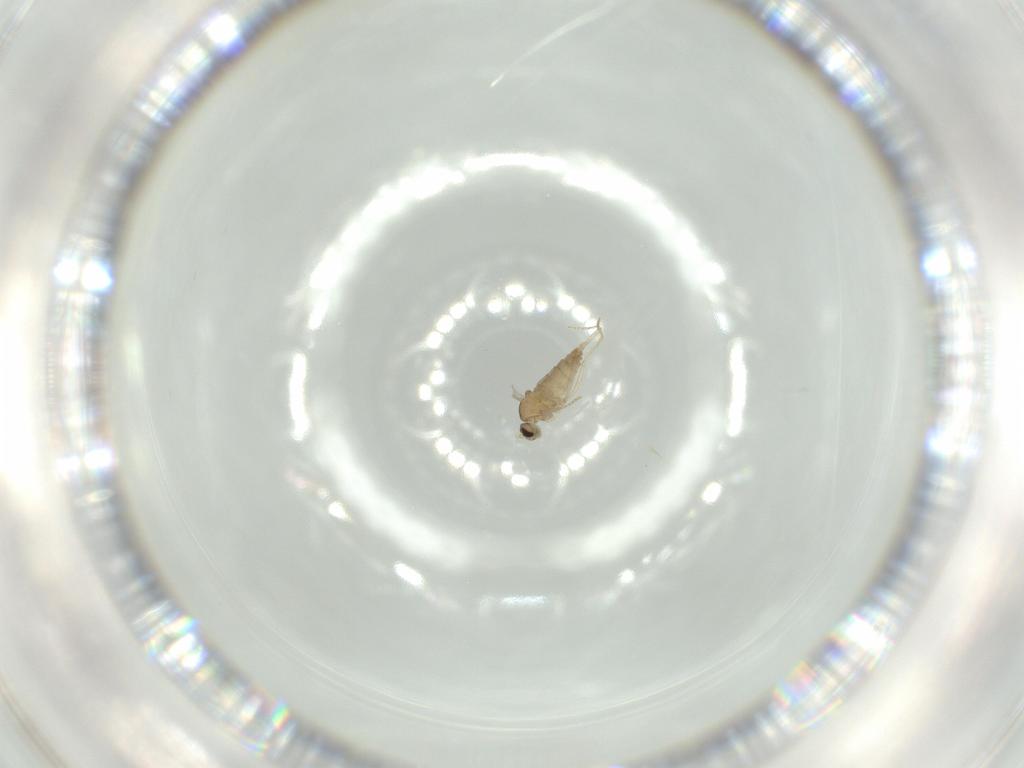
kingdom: Animalia
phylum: Arthropoda
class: Insecta
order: Diptera
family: Cecidomyiidae
